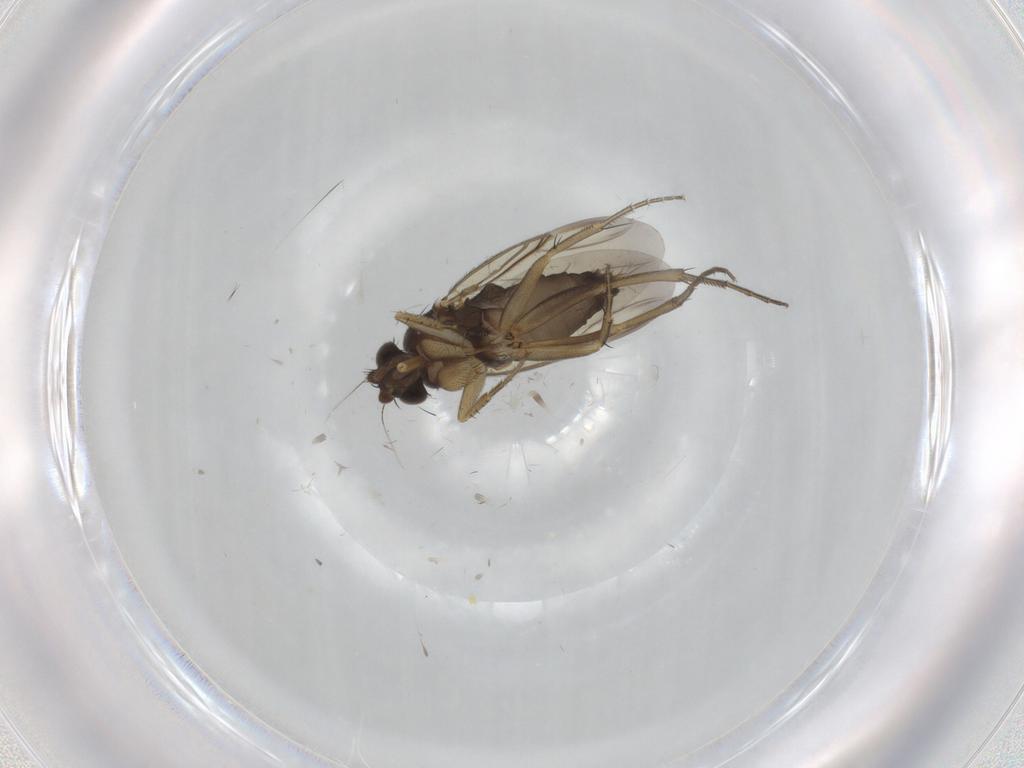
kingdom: Animalia
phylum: Arthropoda
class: Insecta
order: Diptera
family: Phoridae
